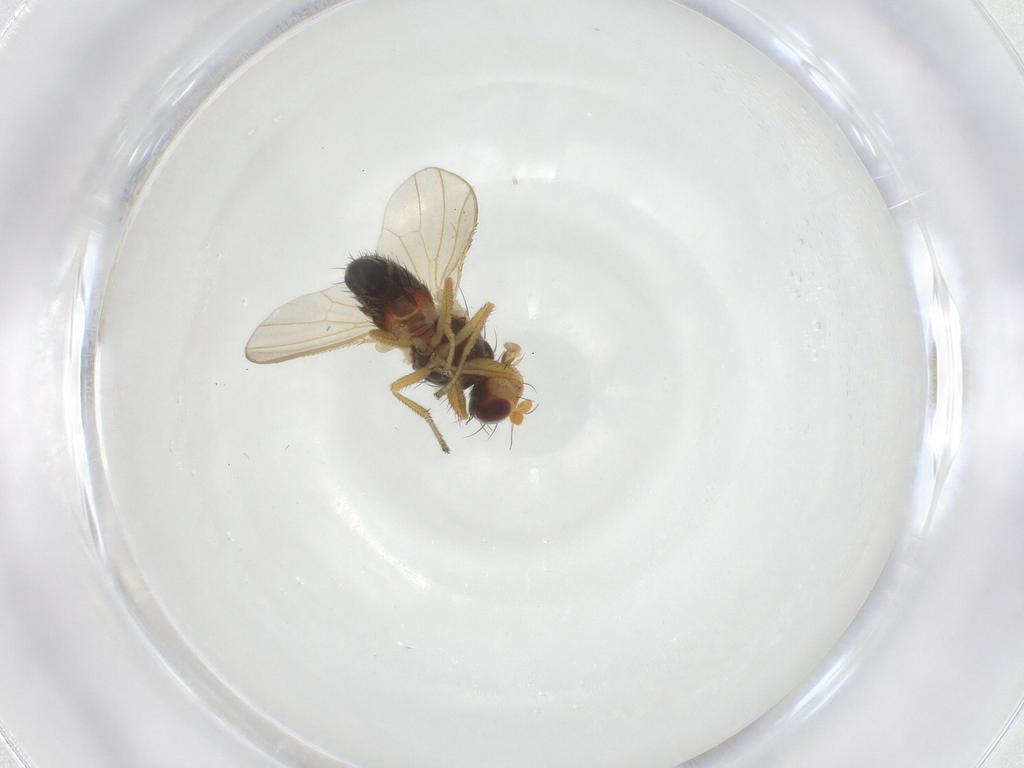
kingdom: Animalia
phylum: Arthropoda
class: Insecta
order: Diptera
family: Heleomyzidae
